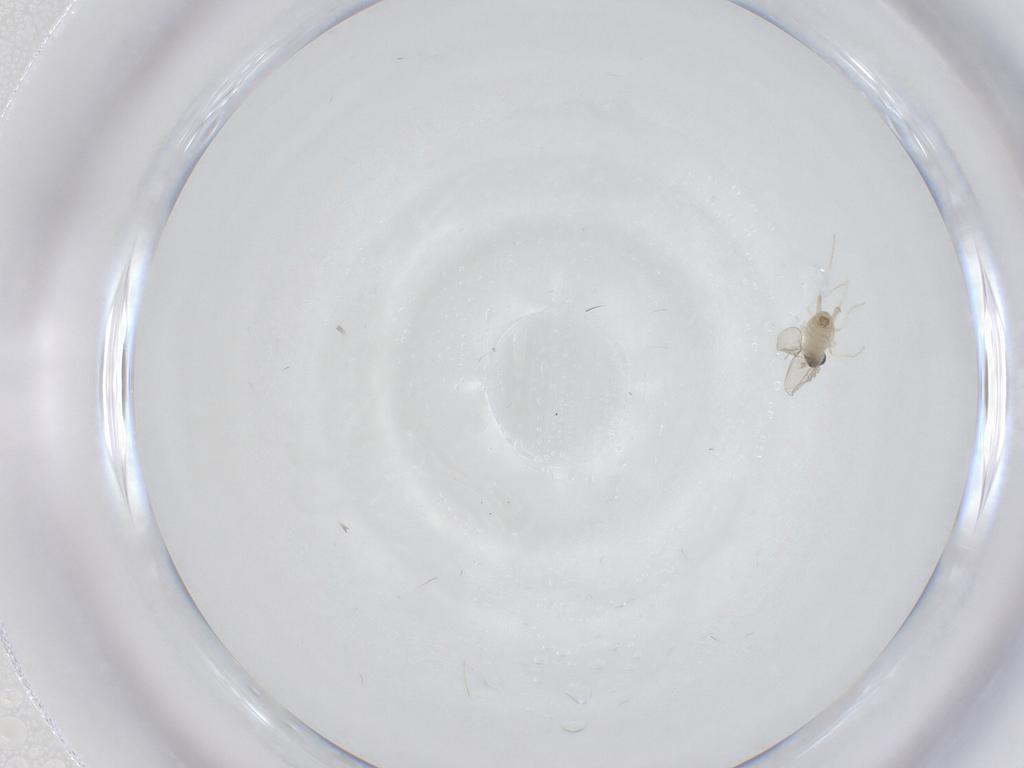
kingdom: Animalia
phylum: Arthropoda
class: Insecta
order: Diptera
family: Cecidomyiidae
